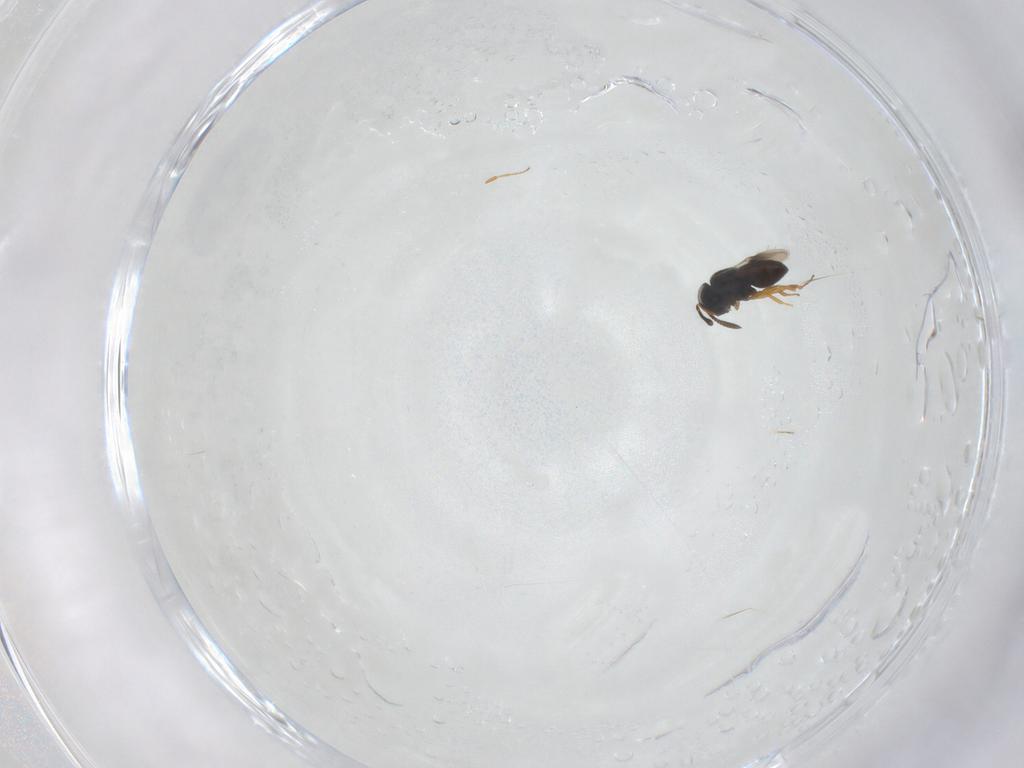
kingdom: Animalia
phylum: Arthropoda
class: Insecta
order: Hymenoptera
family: Scelionidae
